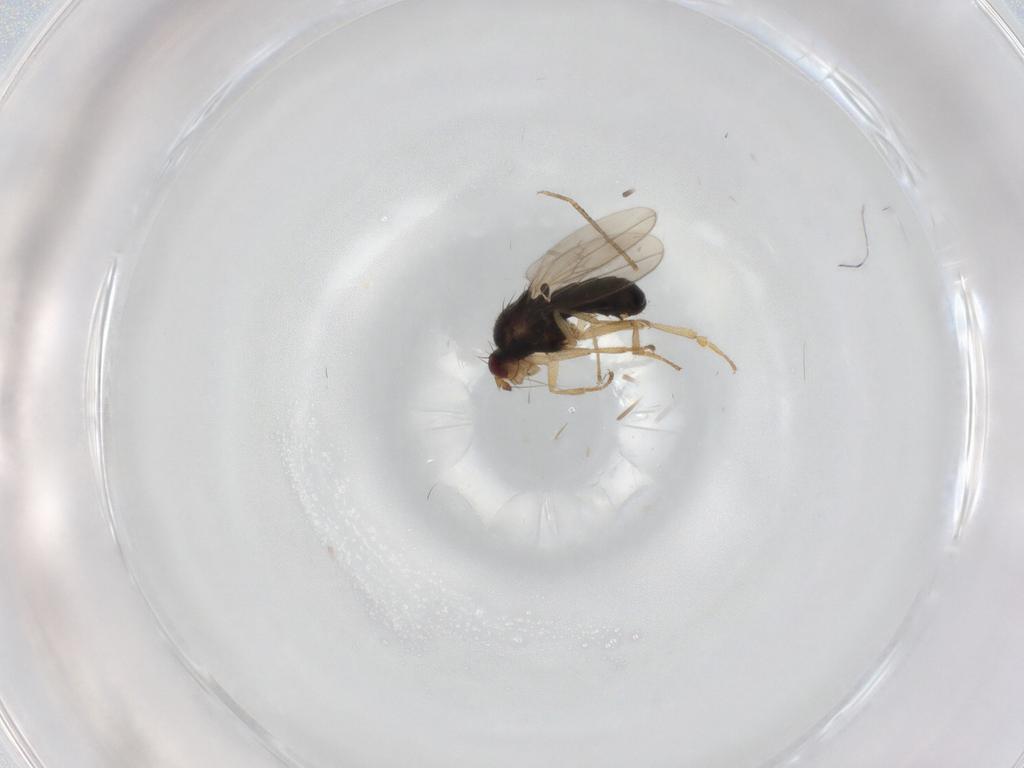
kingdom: Animalia
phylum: Arthropoda
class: Insecta
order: Diptera
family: Sphaeroceridae
